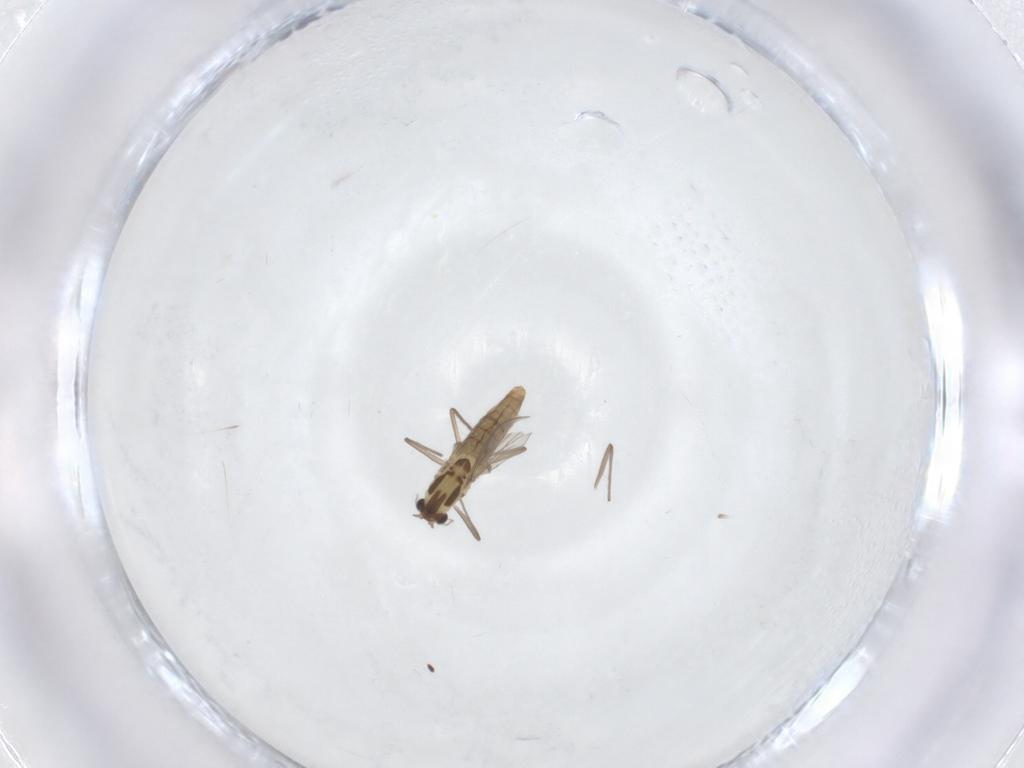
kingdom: Animalia
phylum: Arthropoda
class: Insecta
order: Diptera
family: Chironomidae
